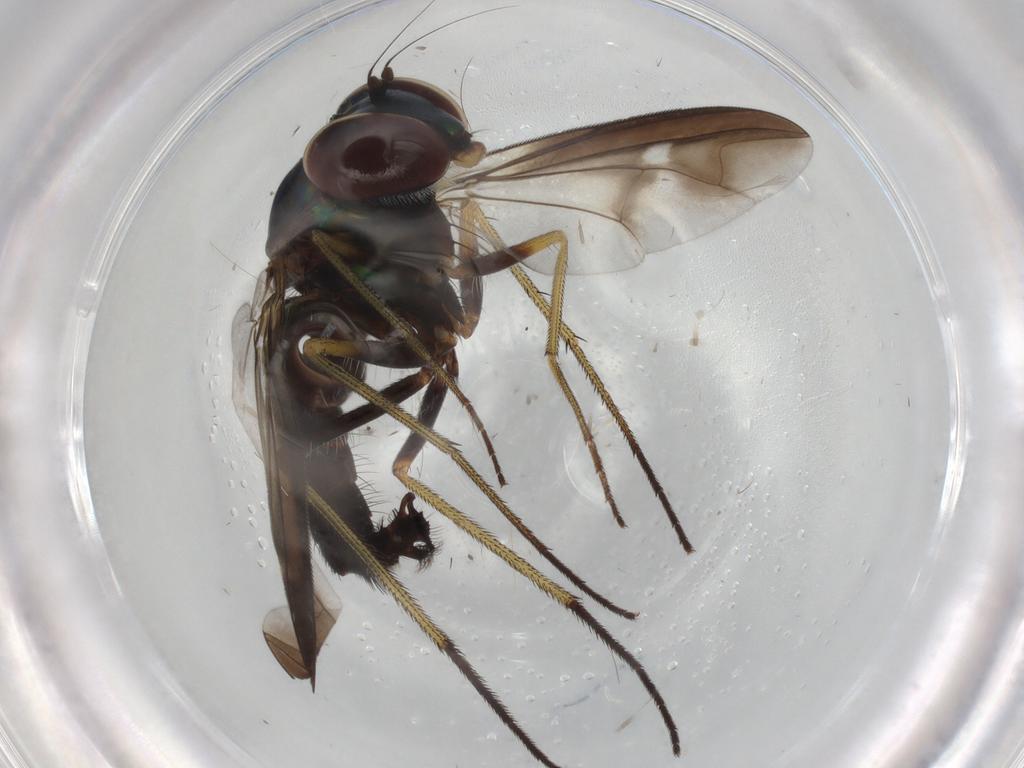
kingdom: Animalia
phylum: Arthropoda
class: Insecta
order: Diptera
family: Dolichopodidae
